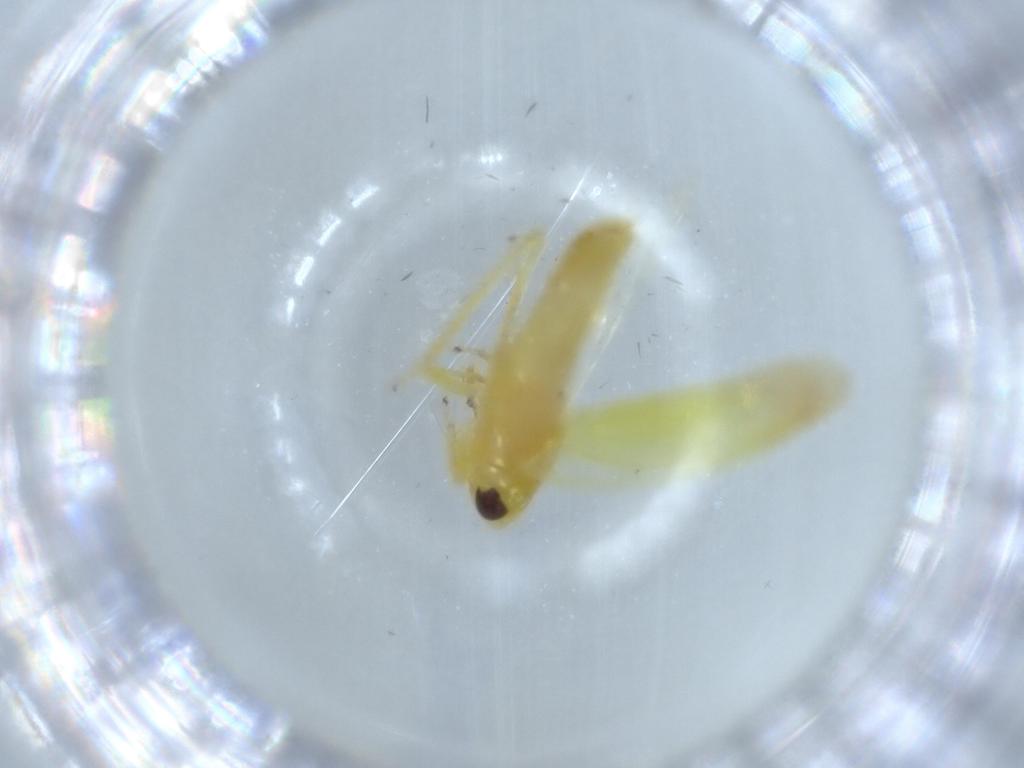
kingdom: Animalia
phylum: Arthropoda
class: Insecta
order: Hemiptera
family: Cicadellidae
